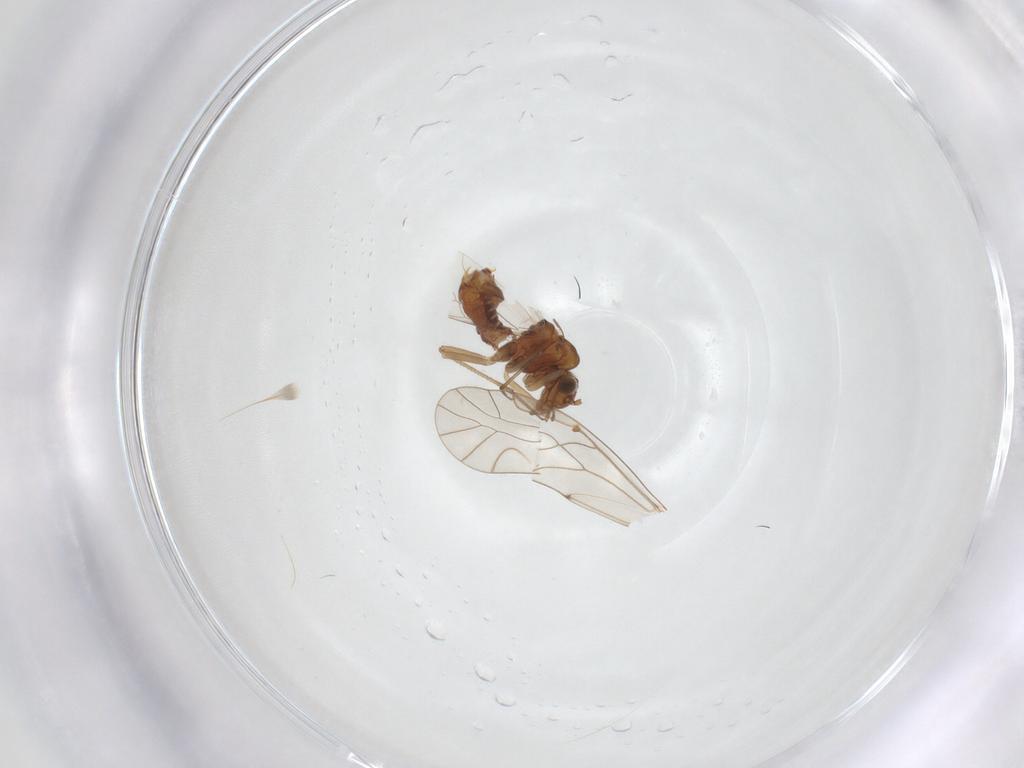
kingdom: Animalia
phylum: Arthropoda
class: Insecta
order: Psocodea
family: Lachesillidae
